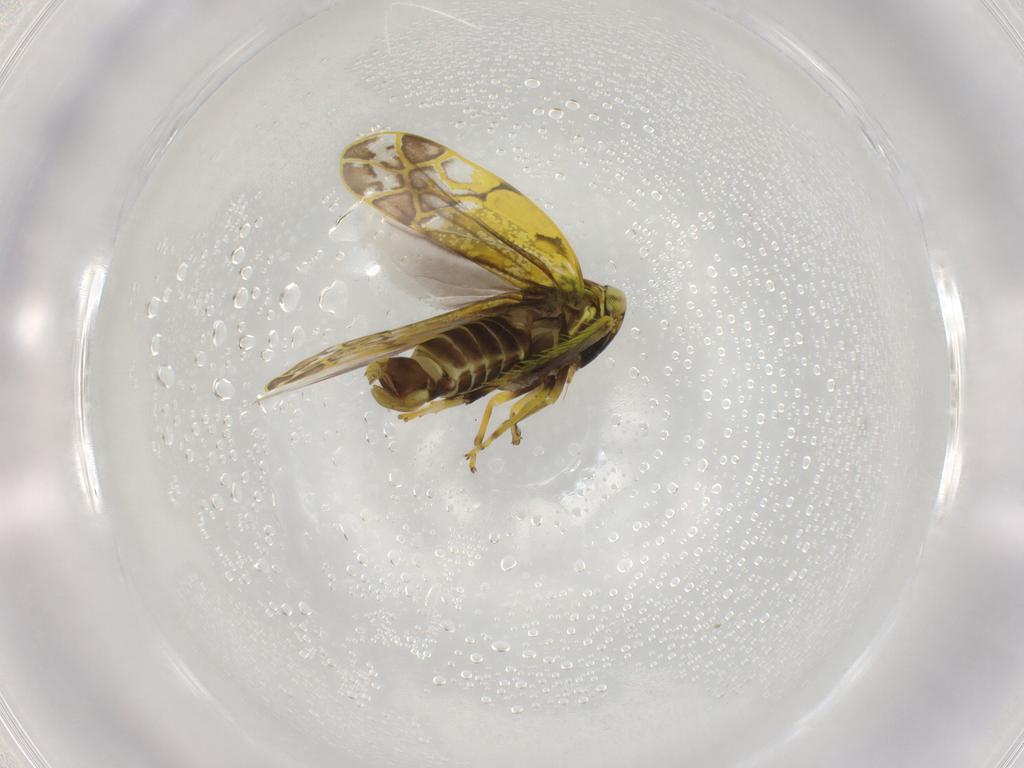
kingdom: Animalia
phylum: Arthropoda
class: Insecta
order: Hemiptera
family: Cicadellidae
